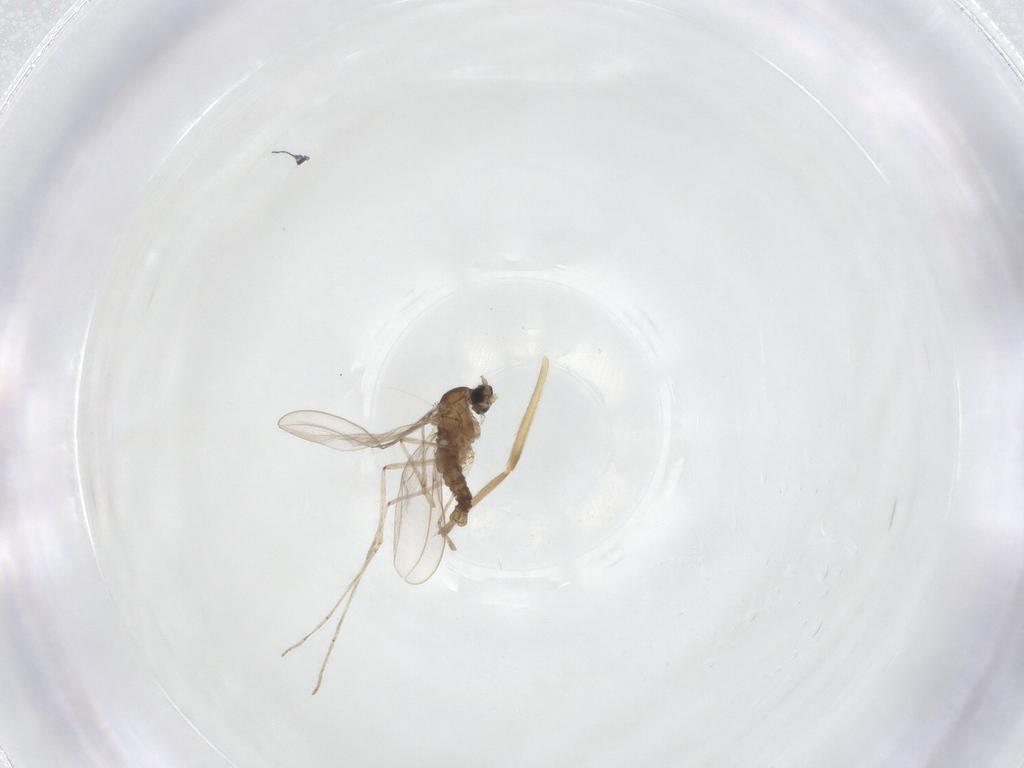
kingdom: Animalia
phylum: Arthropoda
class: Insecta
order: Diptera
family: Cecidomyiidae
